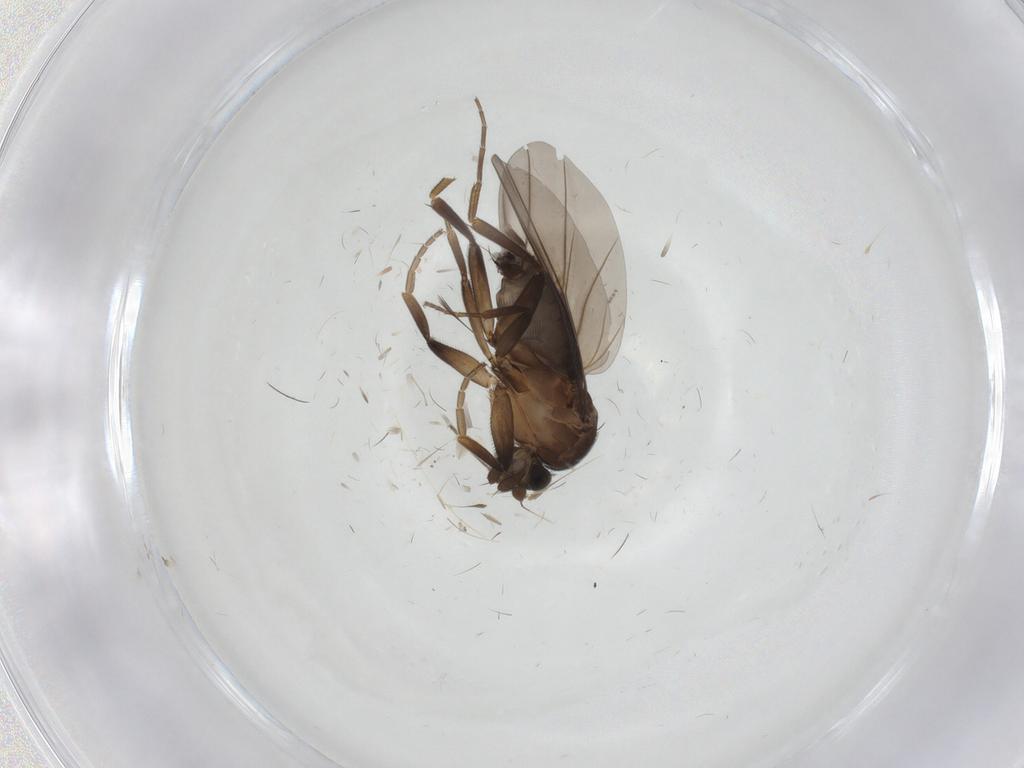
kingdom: Animalia
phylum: Arthropoda
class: Insecta
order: Diptera
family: Phoridae
